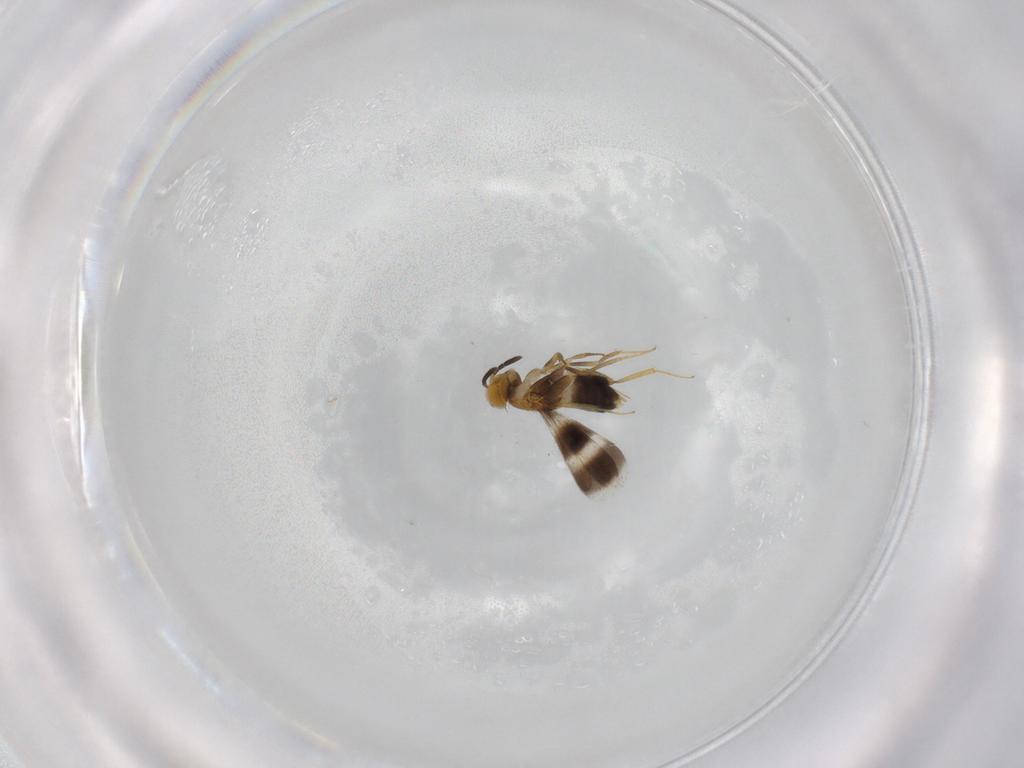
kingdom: Animalia
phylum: Arthropoda
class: Insecta
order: Hymenoptera
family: Aphelinidae
